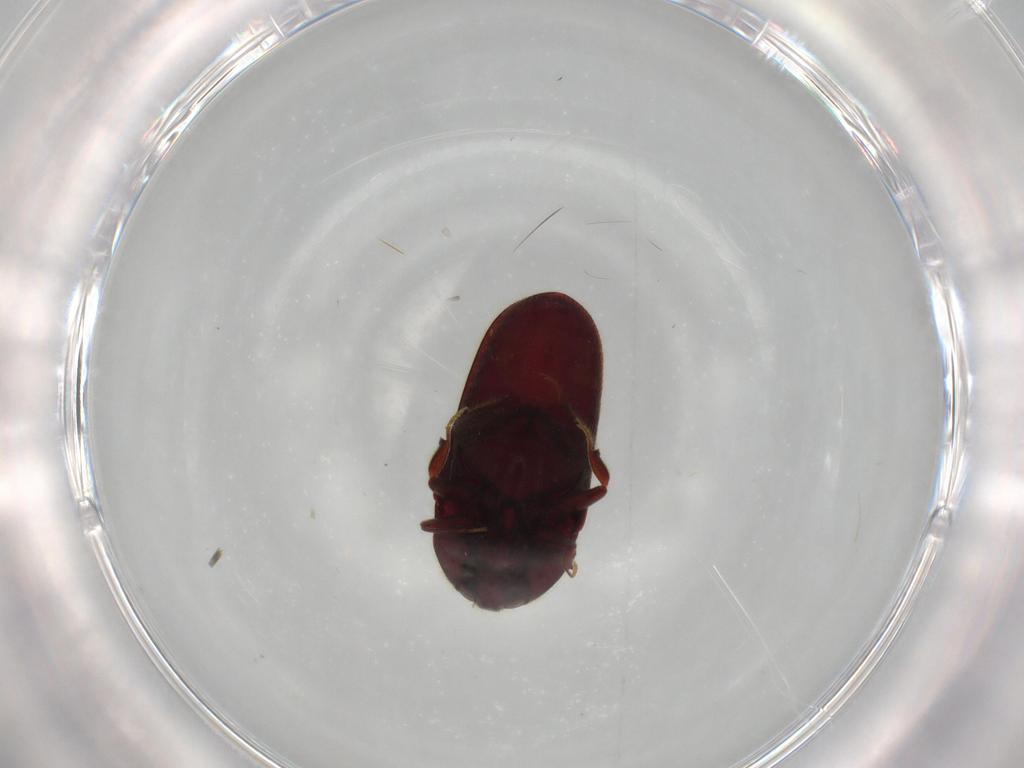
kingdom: Animalia
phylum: Arthropoda
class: Insecta
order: Coleoptera
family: Throscidae
